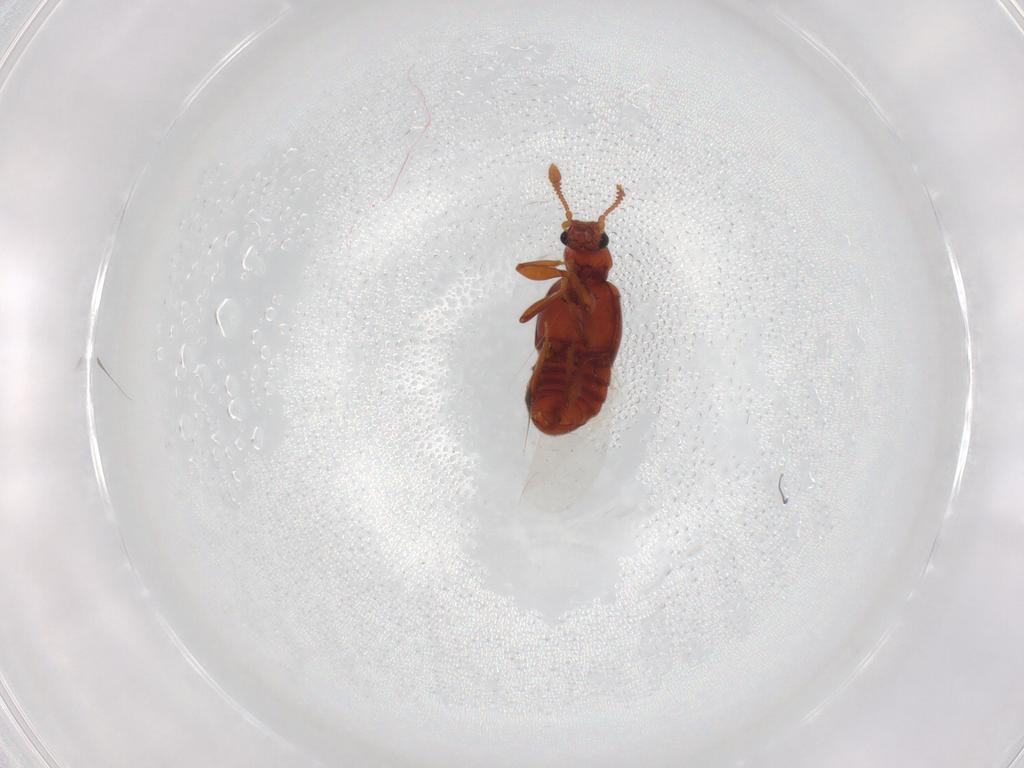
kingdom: Animalia
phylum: Arthropoda
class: Insecta
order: Coleoptera
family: Staphylinidae
